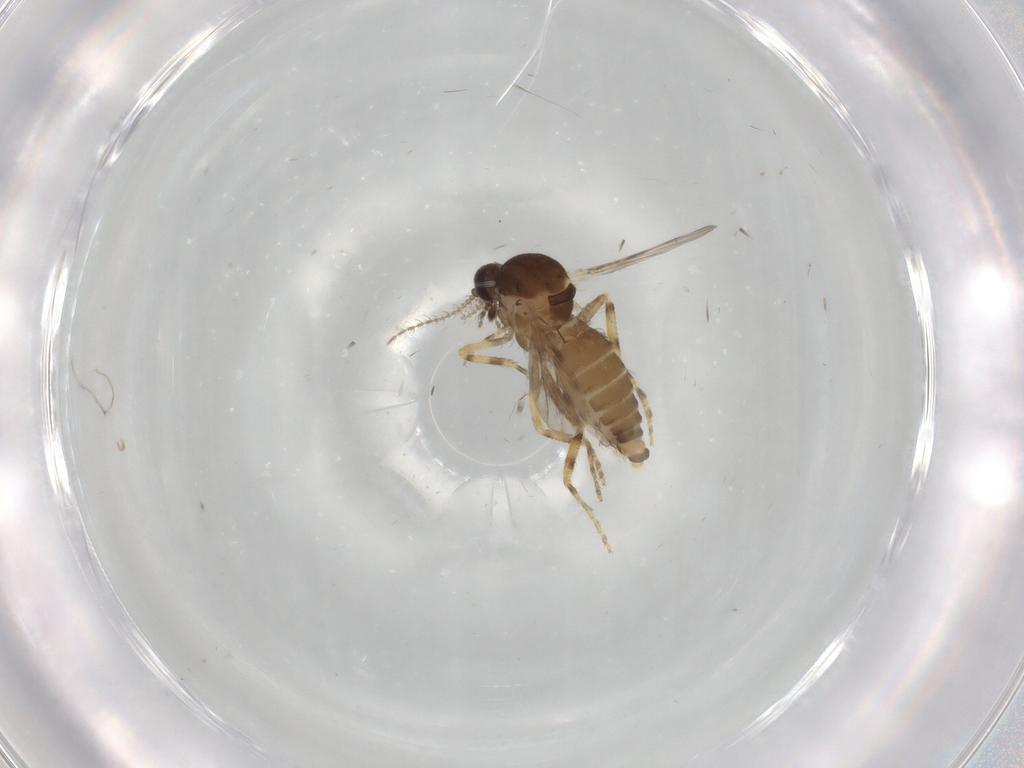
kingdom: Animalia
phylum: Arthropoda
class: Insecta
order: Diptera
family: Ceratopogonidae
